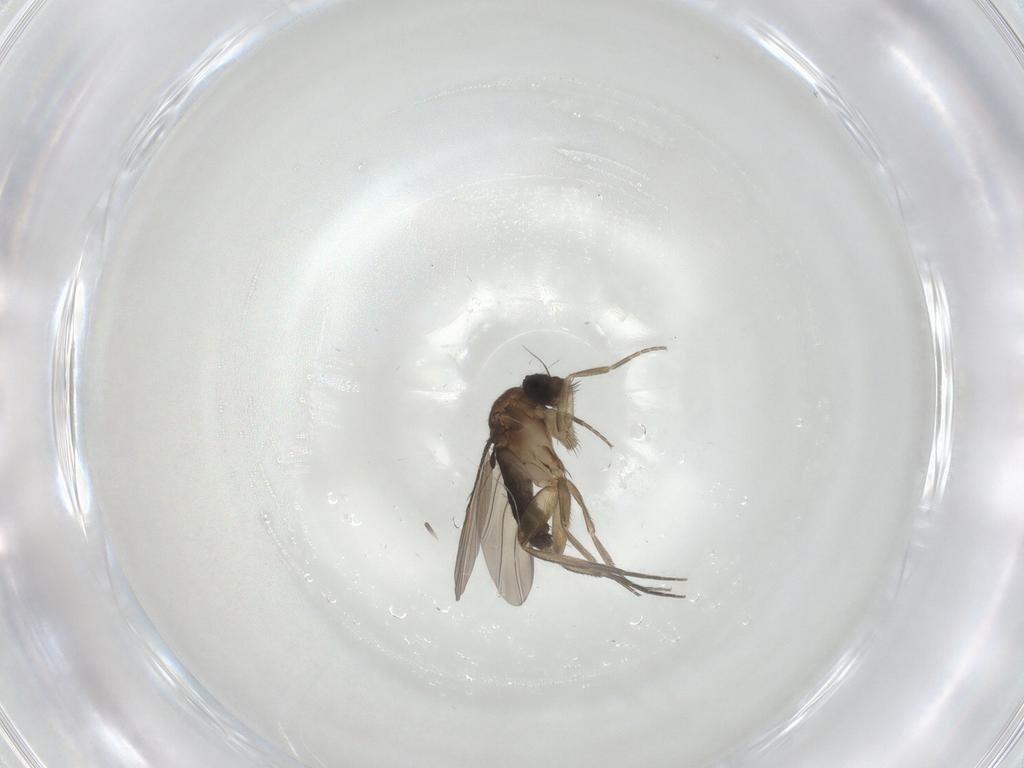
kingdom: Animalia
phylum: Arthropoda
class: Insecta
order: Diptera
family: Phoridae
